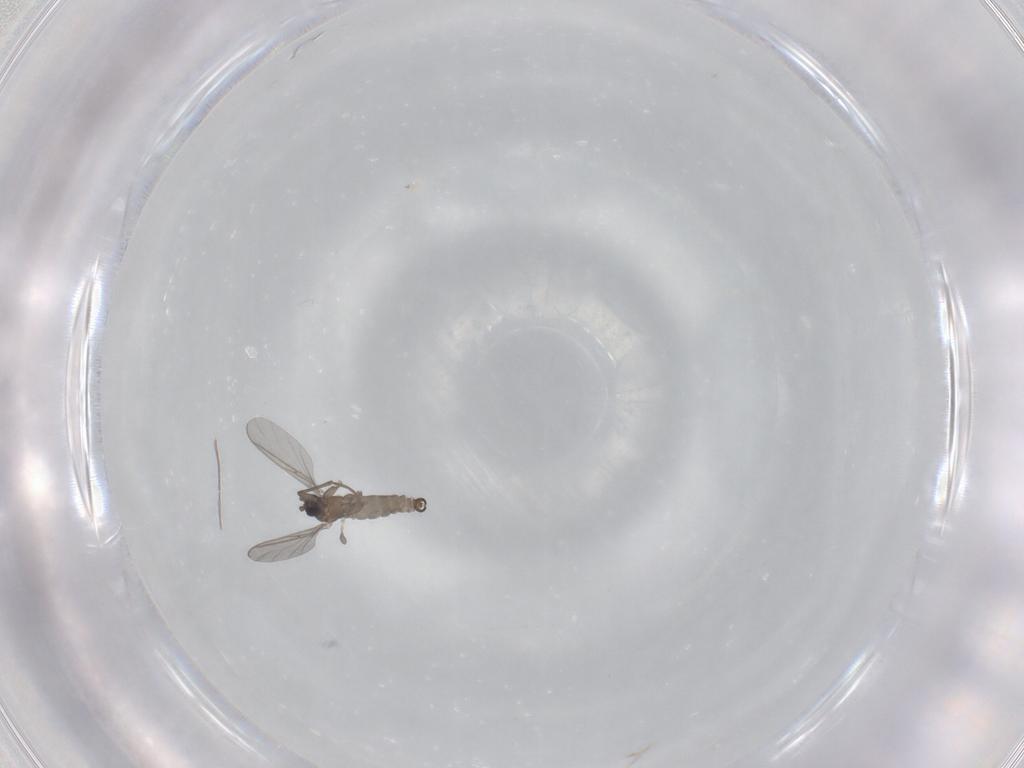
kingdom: Animalia
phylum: Arthropoda
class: Insecta
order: Diptera
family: Sciaridae
